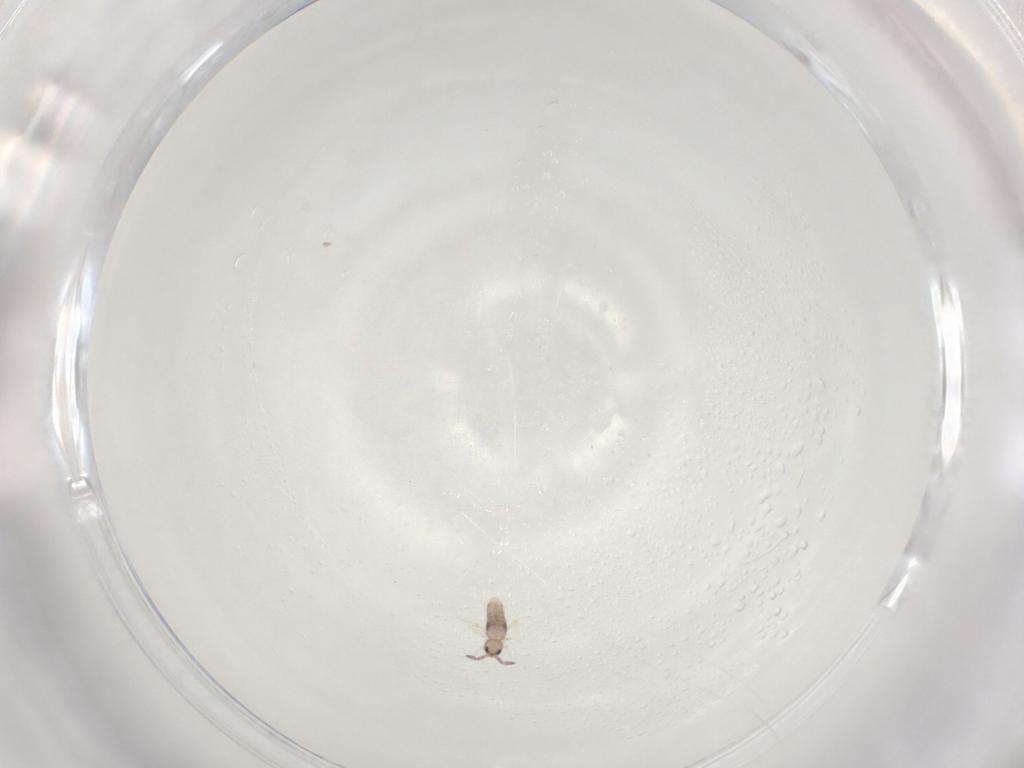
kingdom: Animalia
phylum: Arthropoda
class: Collembola
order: Entomobryomorpha
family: Entomobryidae
